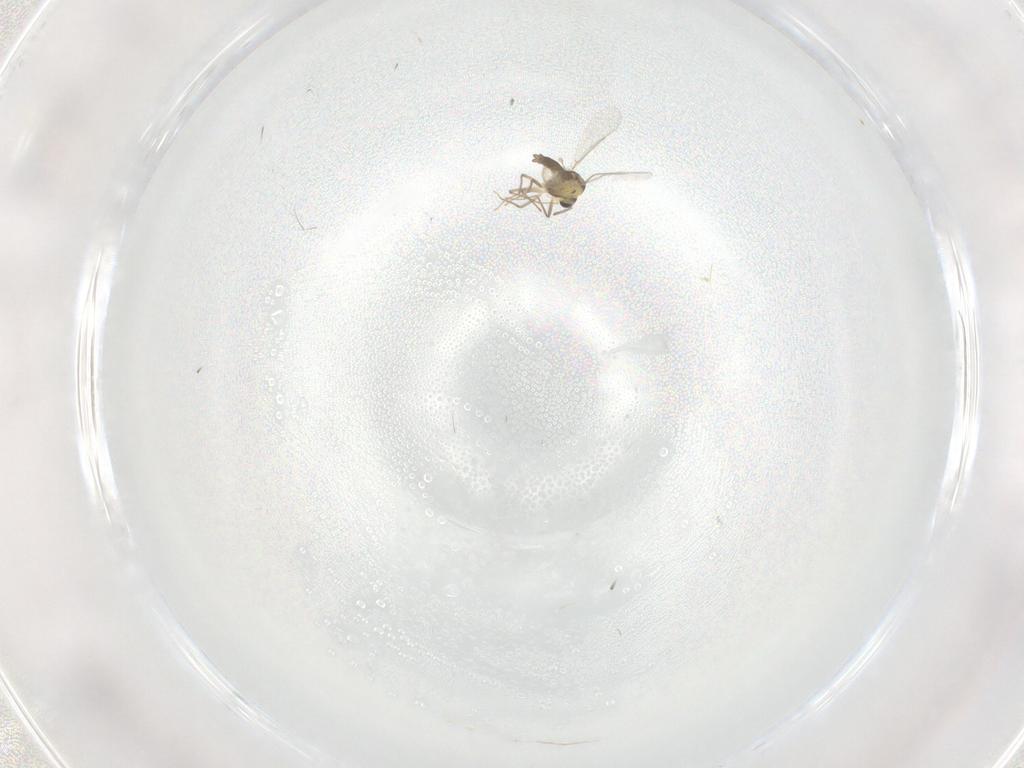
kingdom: Animalia
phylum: Arthropoda
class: Insecta
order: Diptera
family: Chironomidae
